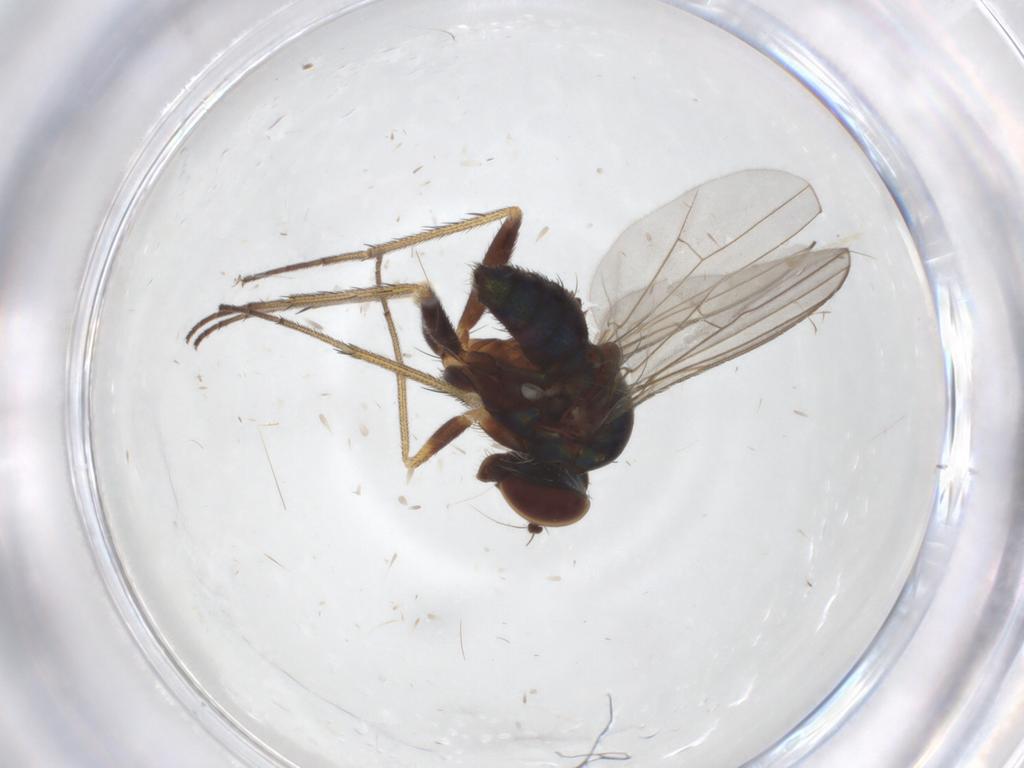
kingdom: Animalia
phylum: Arthropoda
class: Insecta
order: Diptera
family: Dolichopodidae
